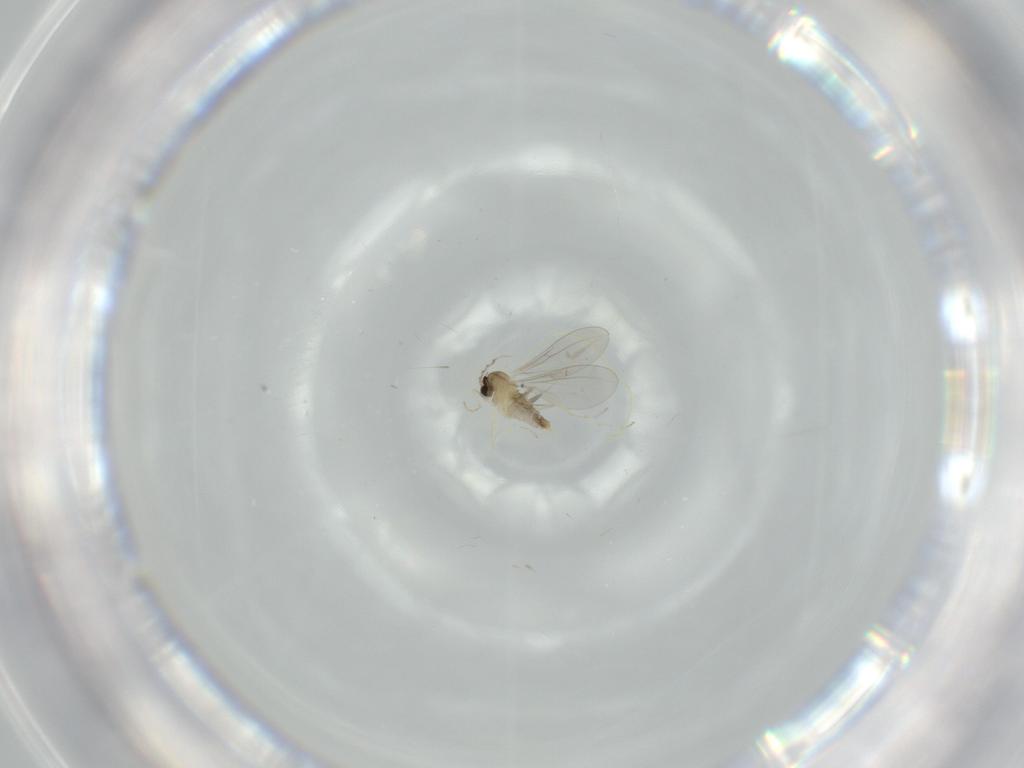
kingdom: Animalia
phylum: Arthropoda
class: Insecta
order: Diptera
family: Cecidomyiidae
